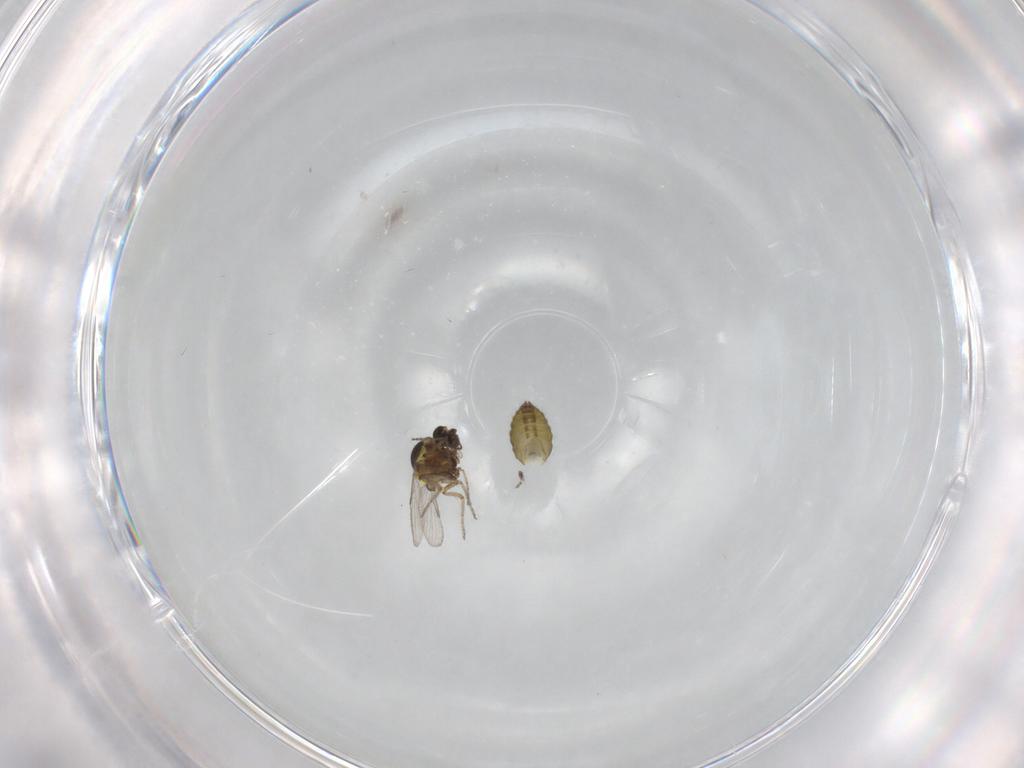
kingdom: Animalia
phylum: Arthropoda
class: Insecta
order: Diptera
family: Ceratopogonidae
